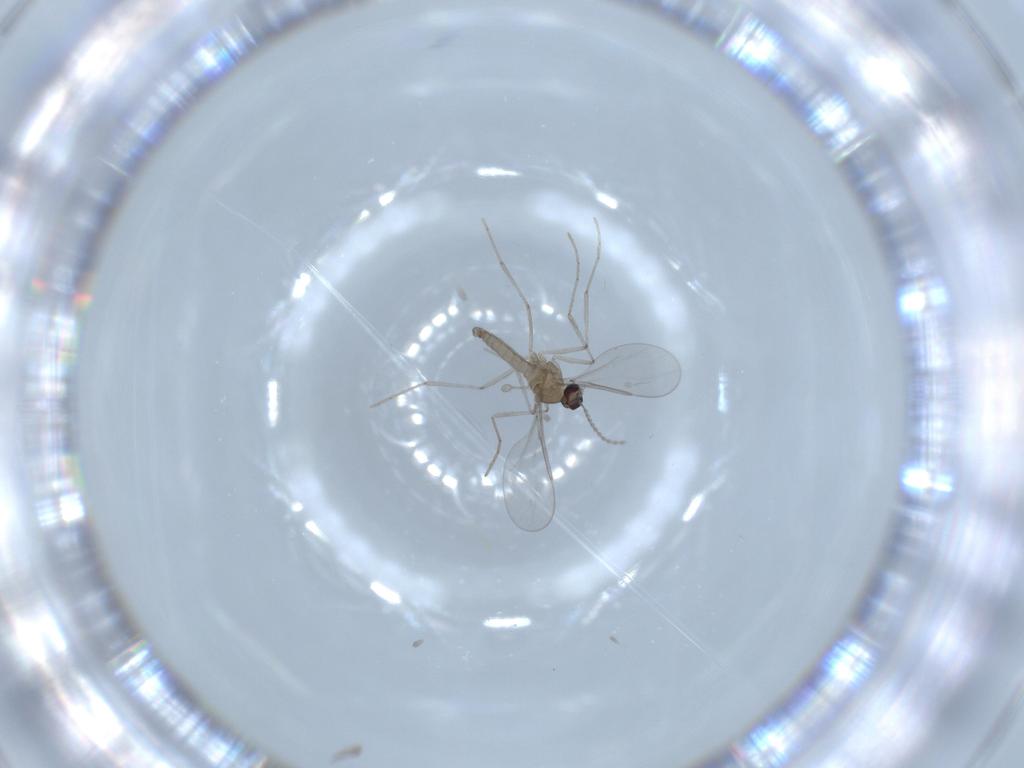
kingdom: Animalia
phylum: Arthropoda
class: Insecta
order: Diptera
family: Cecidomyiidae
